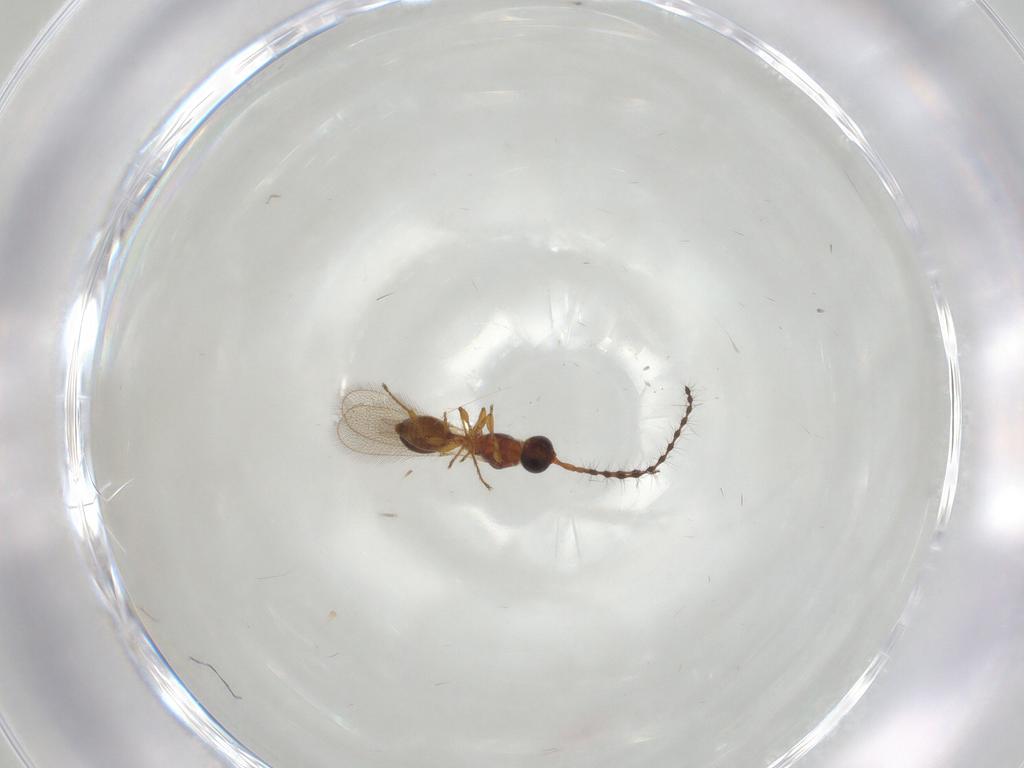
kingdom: Animalia
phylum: Arthropoda
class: Insecta
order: Hymenoptera
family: Diapriidae
